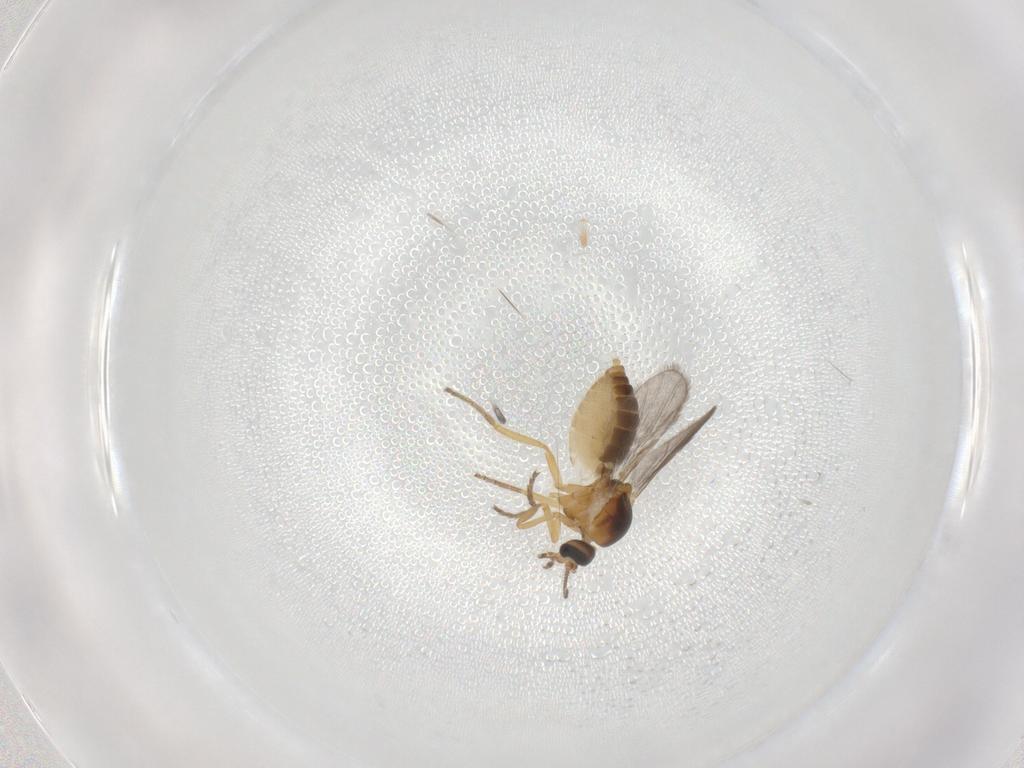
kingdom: Animalia
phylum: Arthropoda
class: Insecta
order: Diptera
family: Ceratopogonidae
